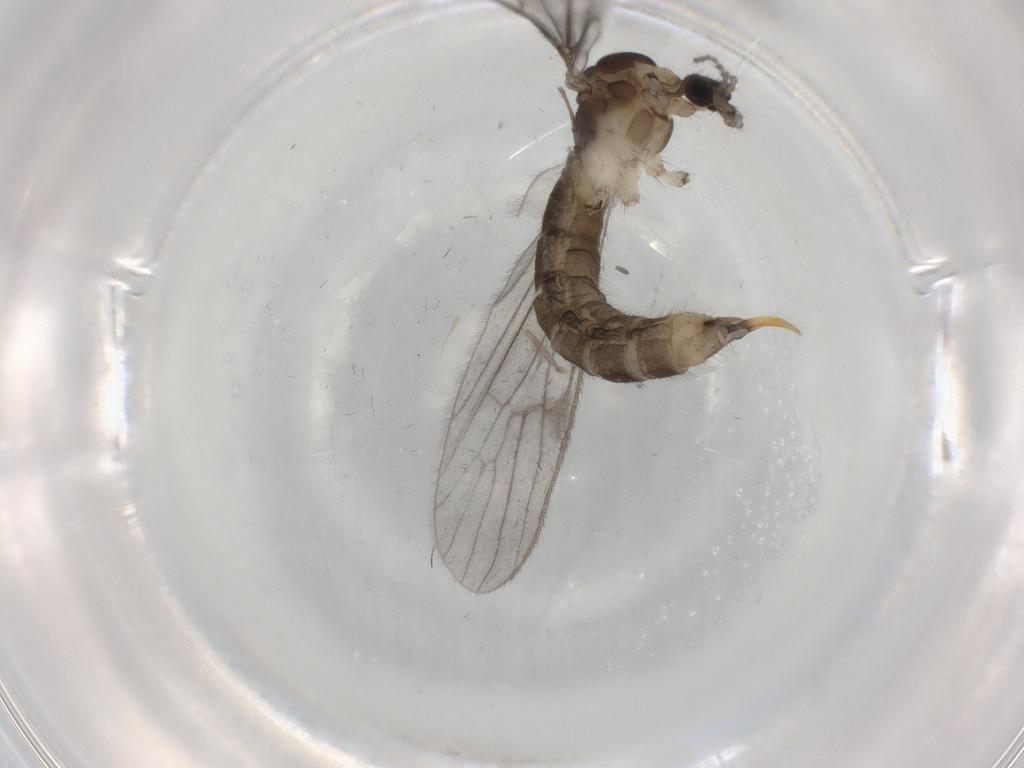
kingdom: Animalia
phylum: Arthropoda
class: Insecta
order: Diptera
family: Limoniidae
